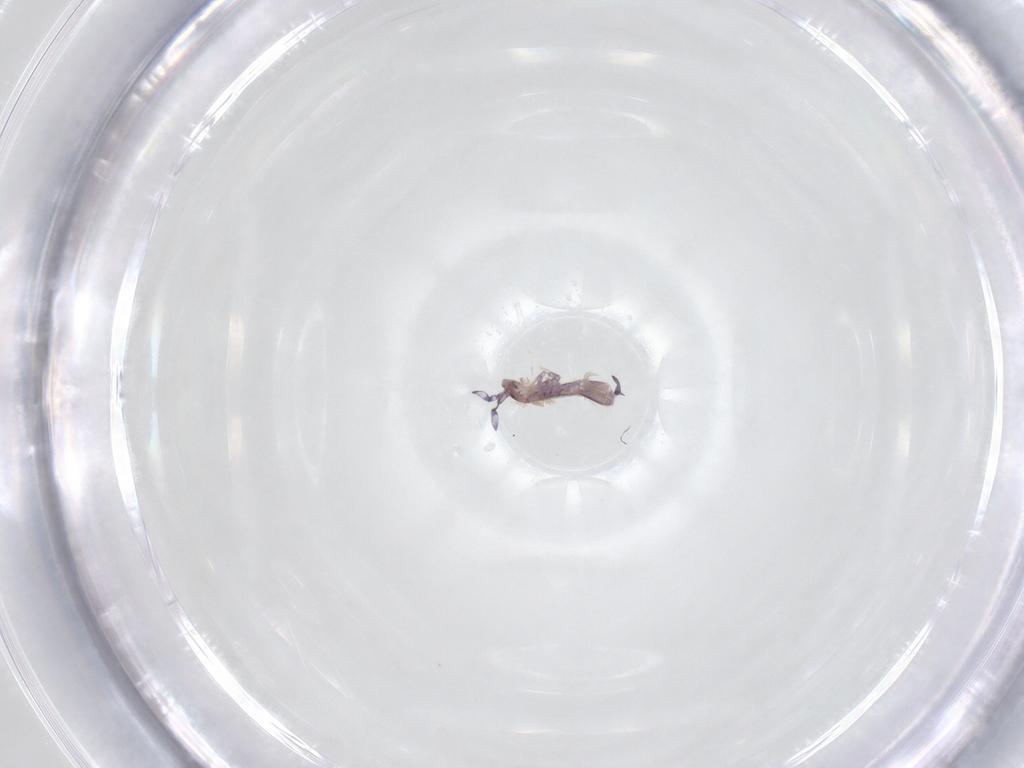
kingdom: Animalia
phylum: Arthropoda
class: Collembola
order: Entomobryomorpha
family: Entomobryidae
